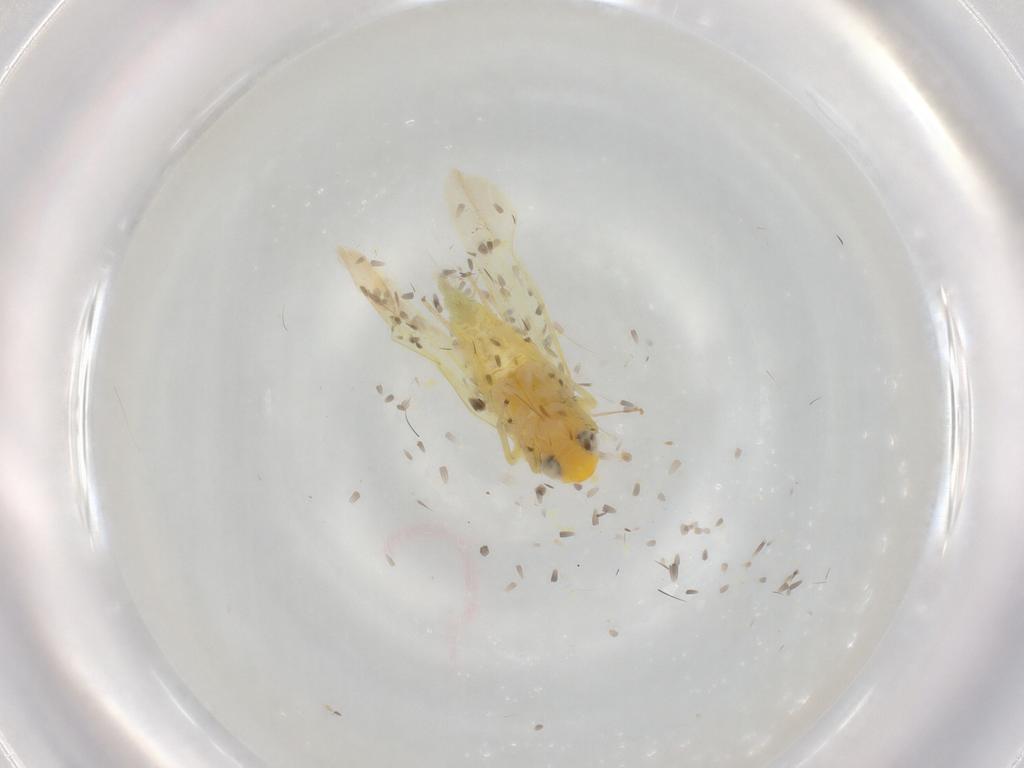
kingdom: Animalia
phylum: Arthropoda
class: Insecta
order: Hemiptera
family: Cicadellidae
